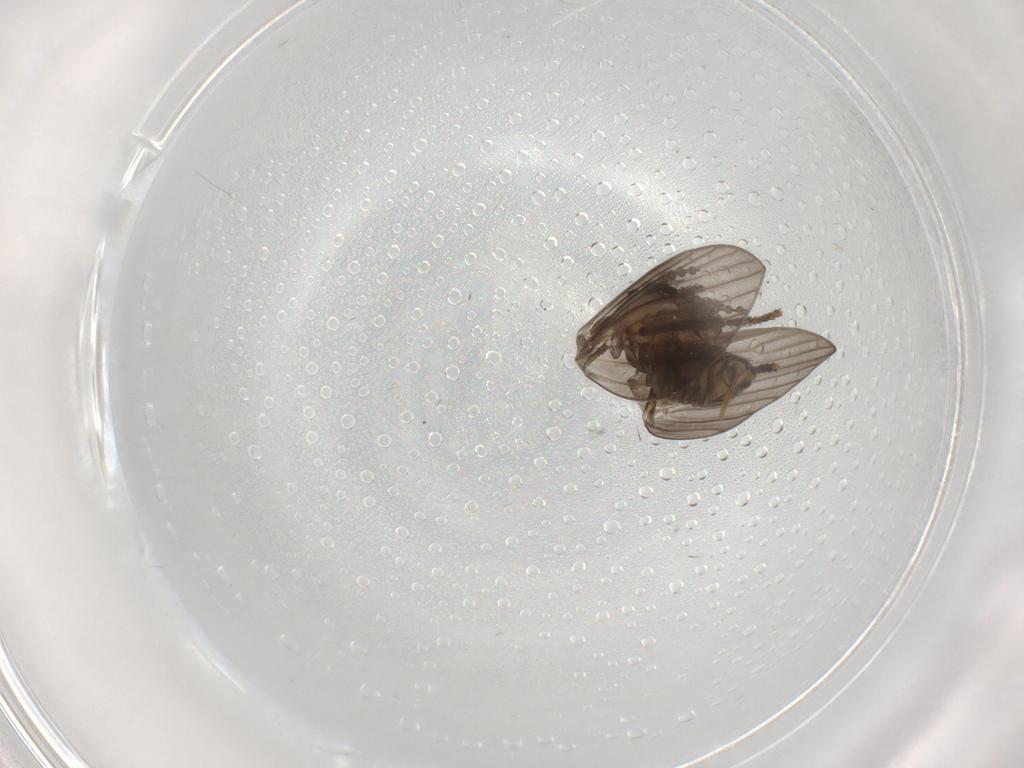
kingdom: Animalia
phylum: Arthropoda
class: Insecta
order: Diptera
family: Psychodidae
